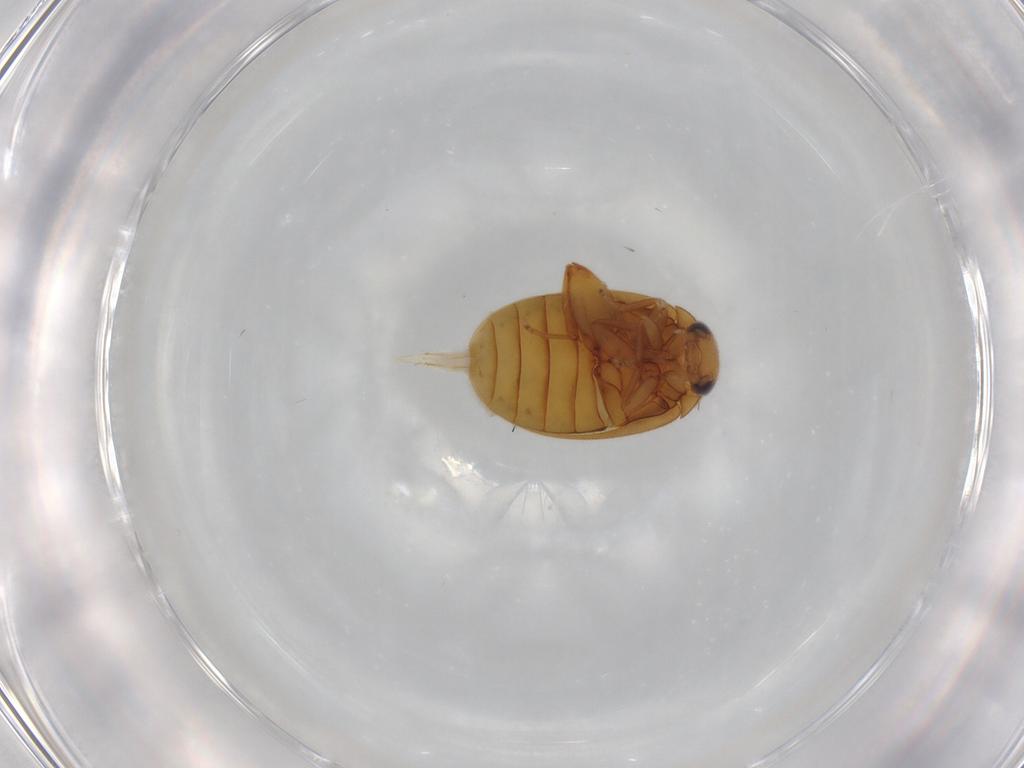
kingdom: Animalia
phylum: Arthropoda
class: Insecta
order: Coleoptera
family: Scirtidae
